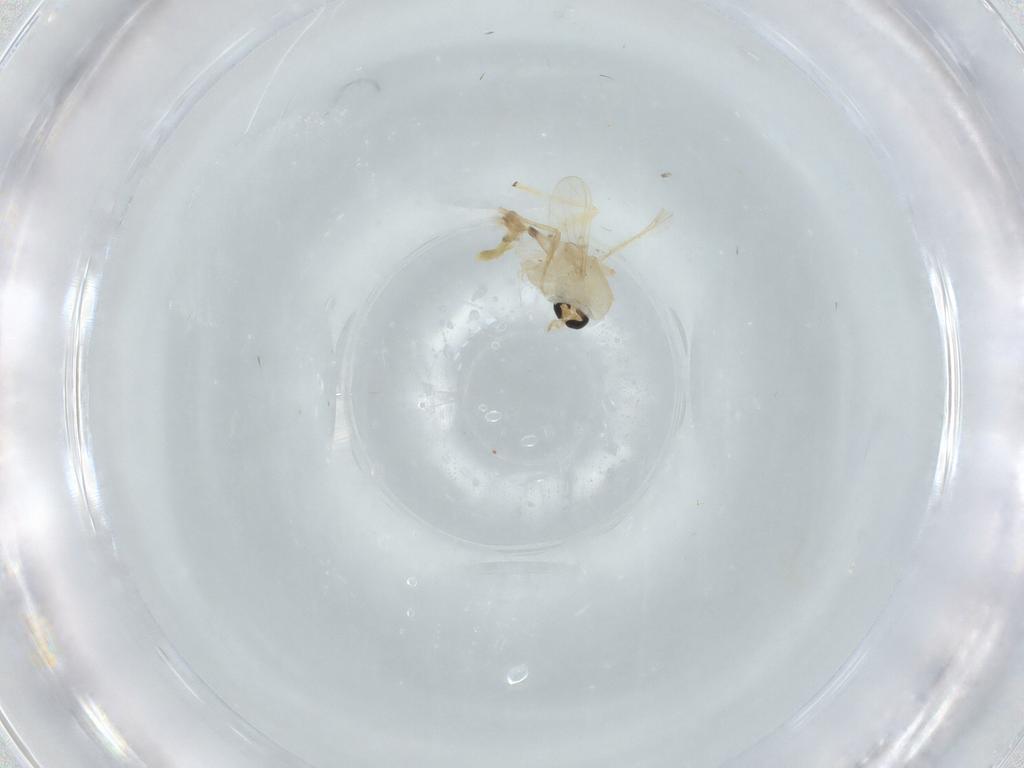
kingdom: Animalia
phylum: Arthropoda
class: Insecta
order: Diptera
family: Chironomidae
